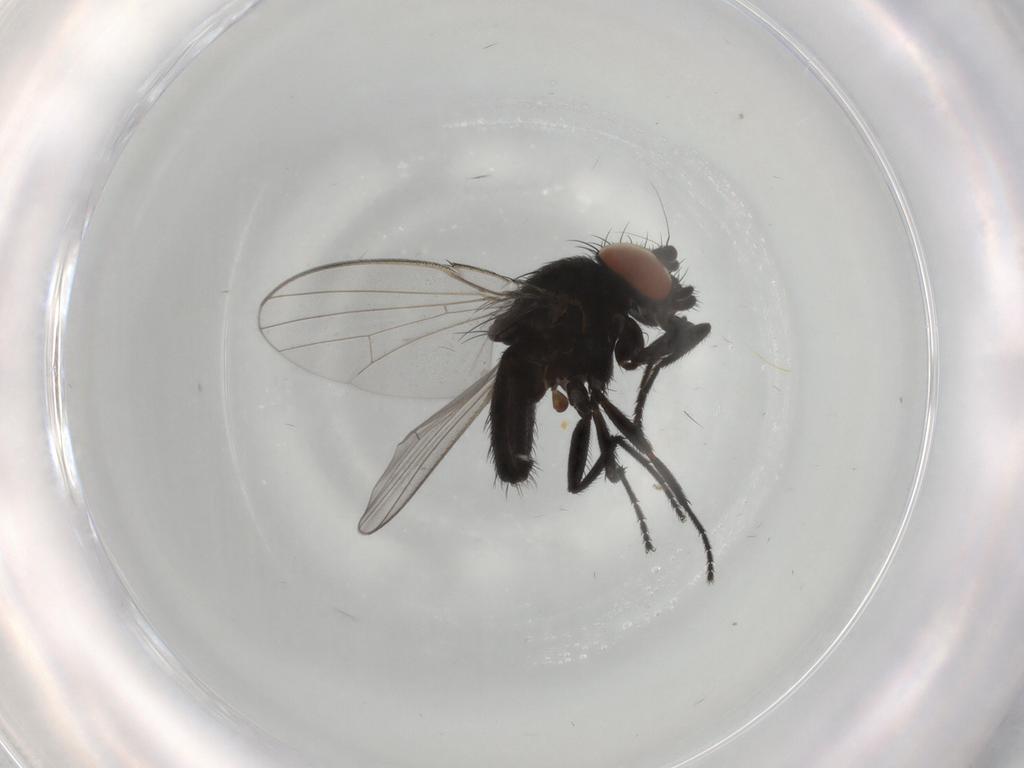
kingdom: Animalia
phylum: Arthropoda
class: Insecta
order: Diptera
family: Milichiidae
